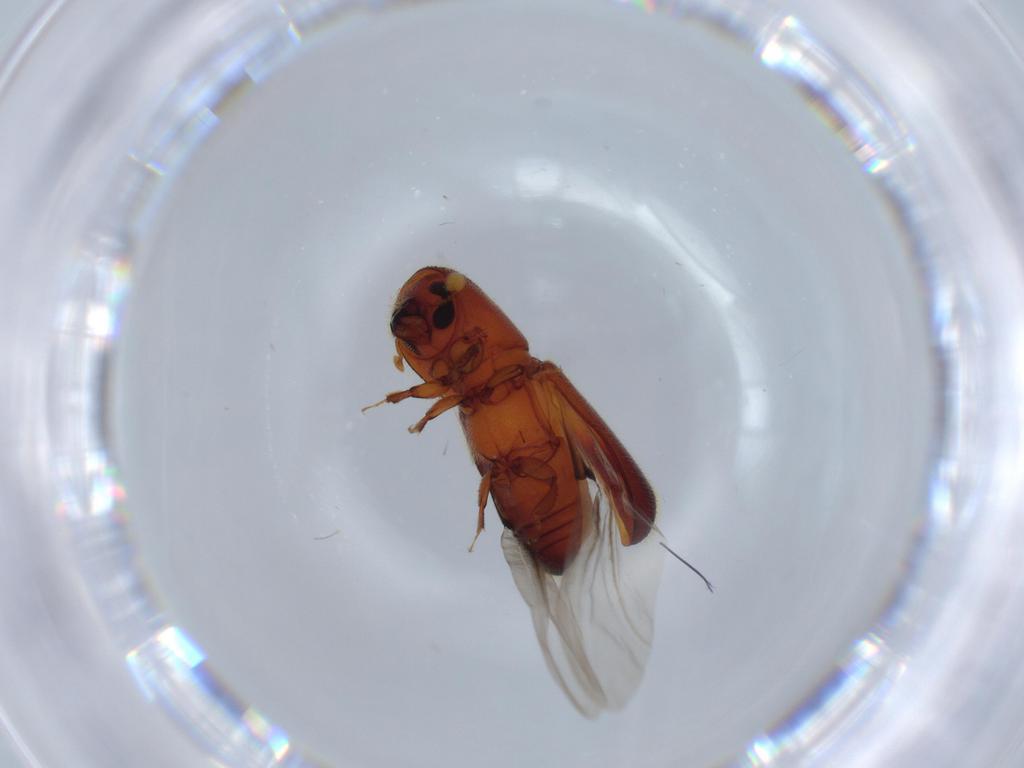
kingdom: Animalia
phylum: Arthropoda
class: Insecta
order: Coleoptera
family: Curculionidae
